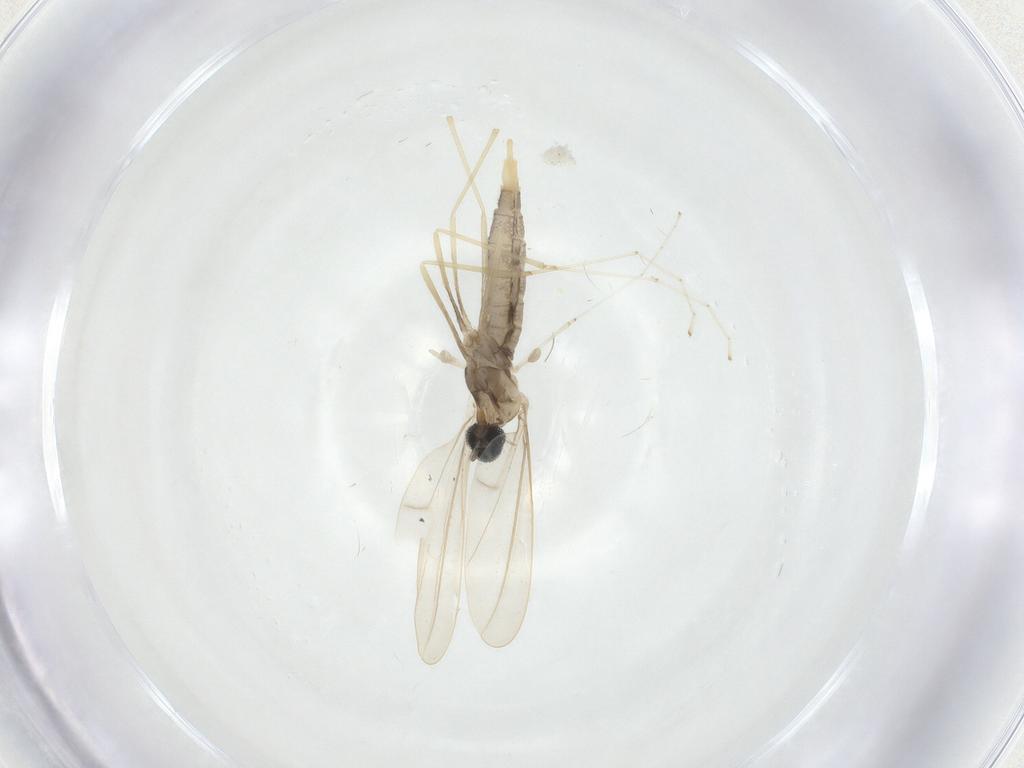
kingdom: Animalia
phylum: Arthropoda
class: Insecta
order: Diptera
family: Cecidomyiidae
